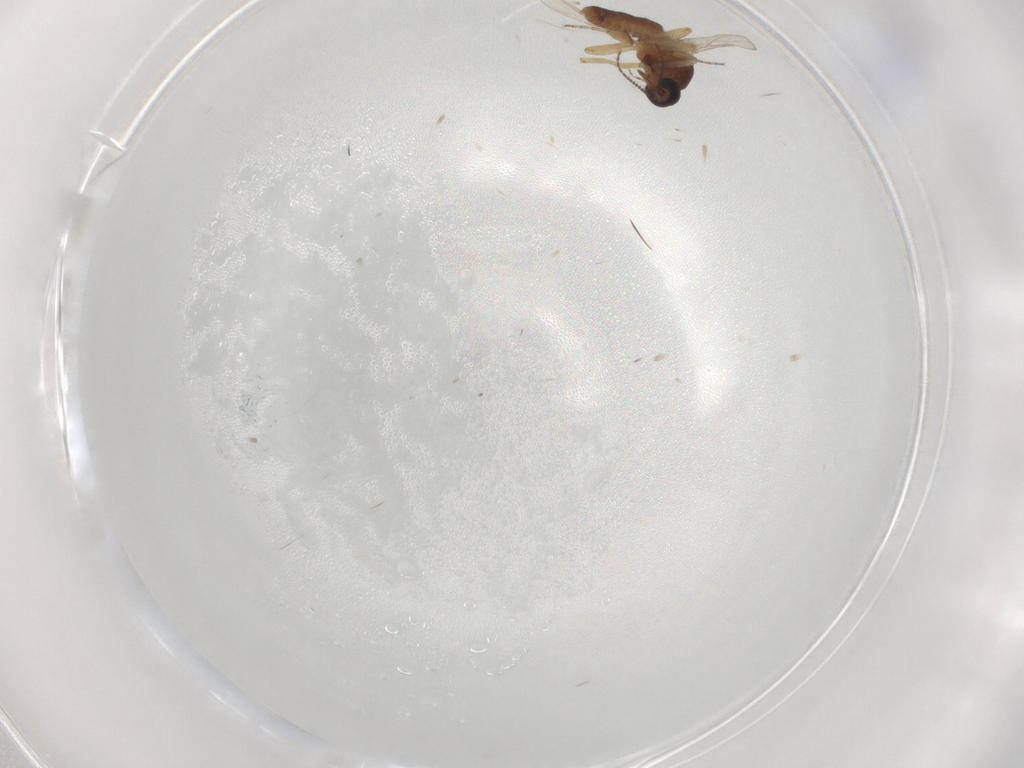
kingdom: Animalia
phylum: Arthropoda
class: Insecta
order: Diptera
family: Ceratopogonidae
